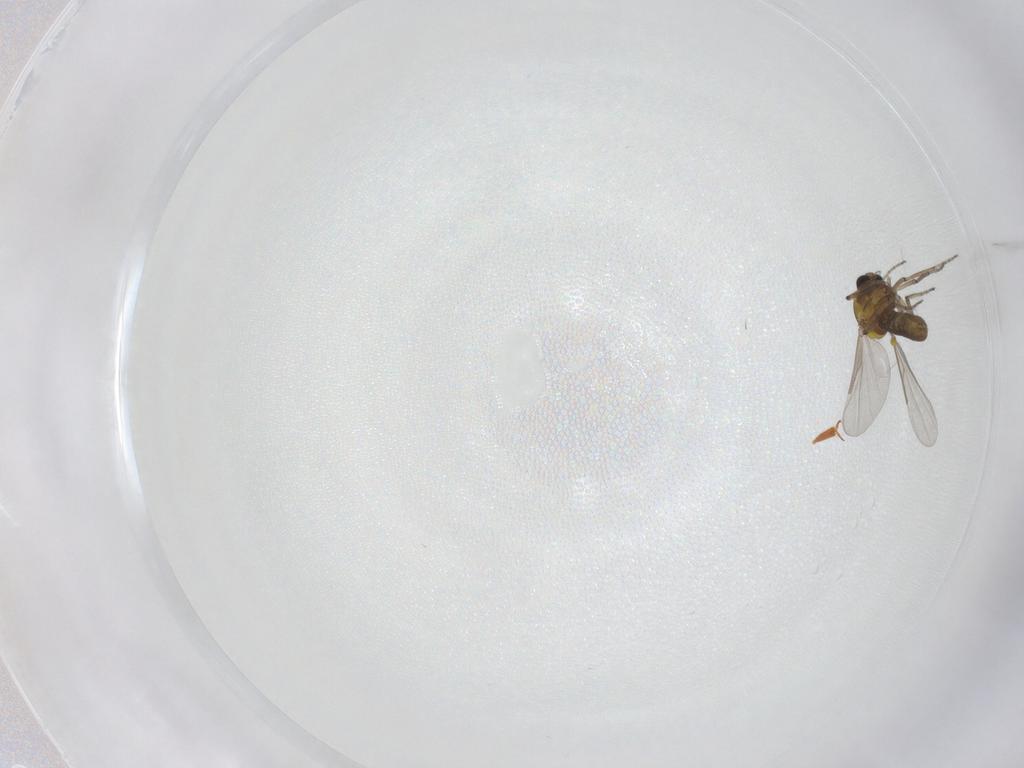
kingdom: Animalia
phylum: Arthropoda
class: Insecta
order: Diptera
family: Ceratopogonidae
